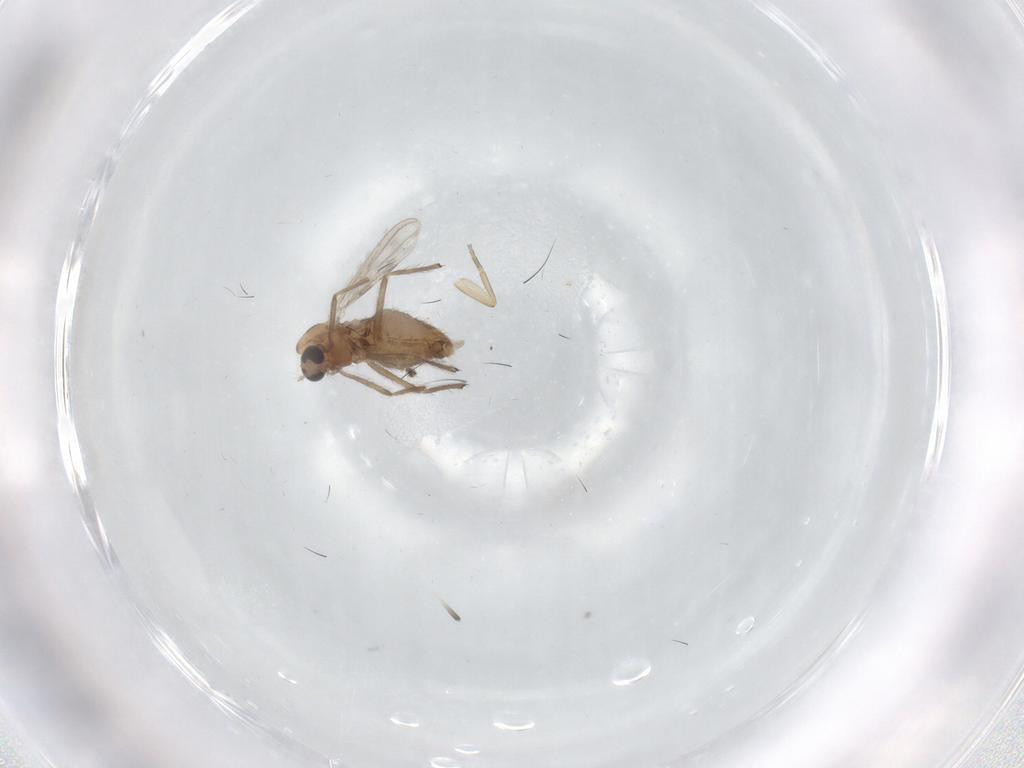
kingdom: Animalia
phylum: Arthropoda
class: Insecta
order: Diptera
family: Chironomidae
